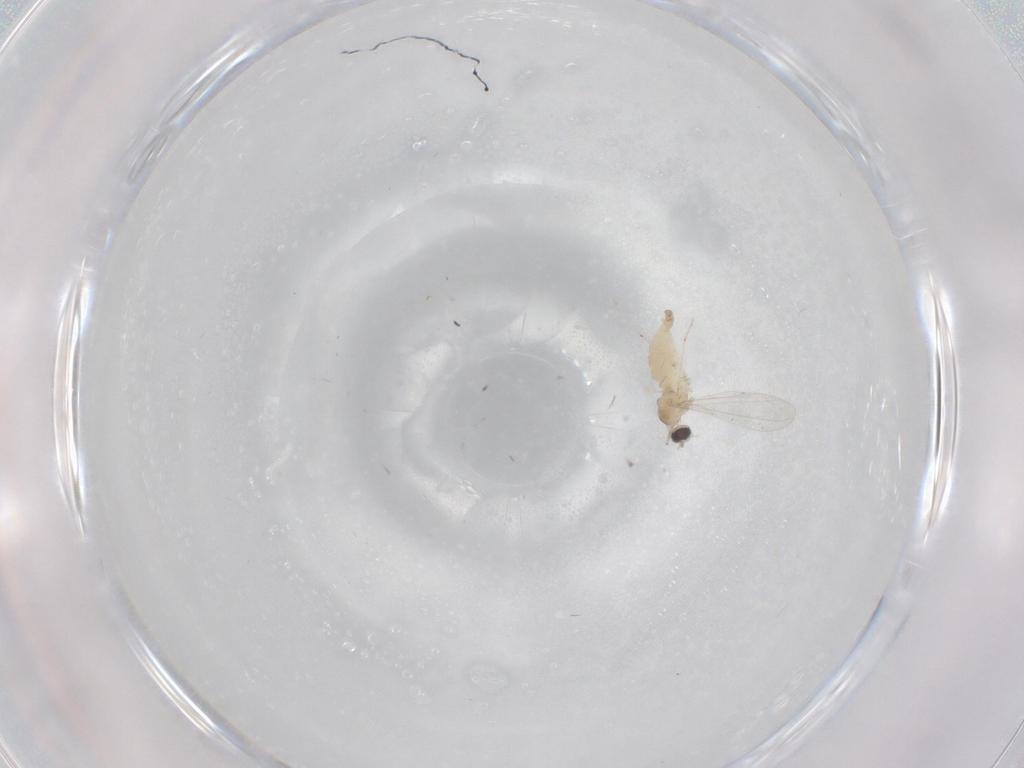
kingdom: Animalia
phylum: Arthropoda
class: Insecta
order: Diptera
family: Cecidomyiidae
